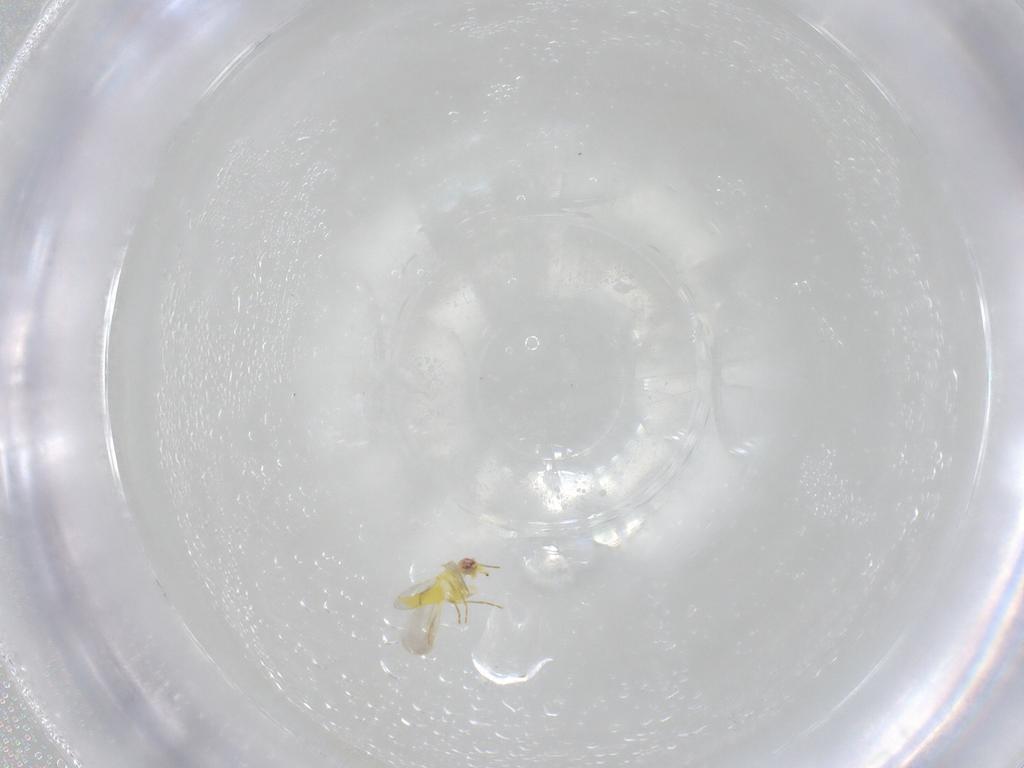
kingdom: Animalia
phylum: Arthropoda
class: Insecta
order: Hemiptera
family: Aleyrodidae
